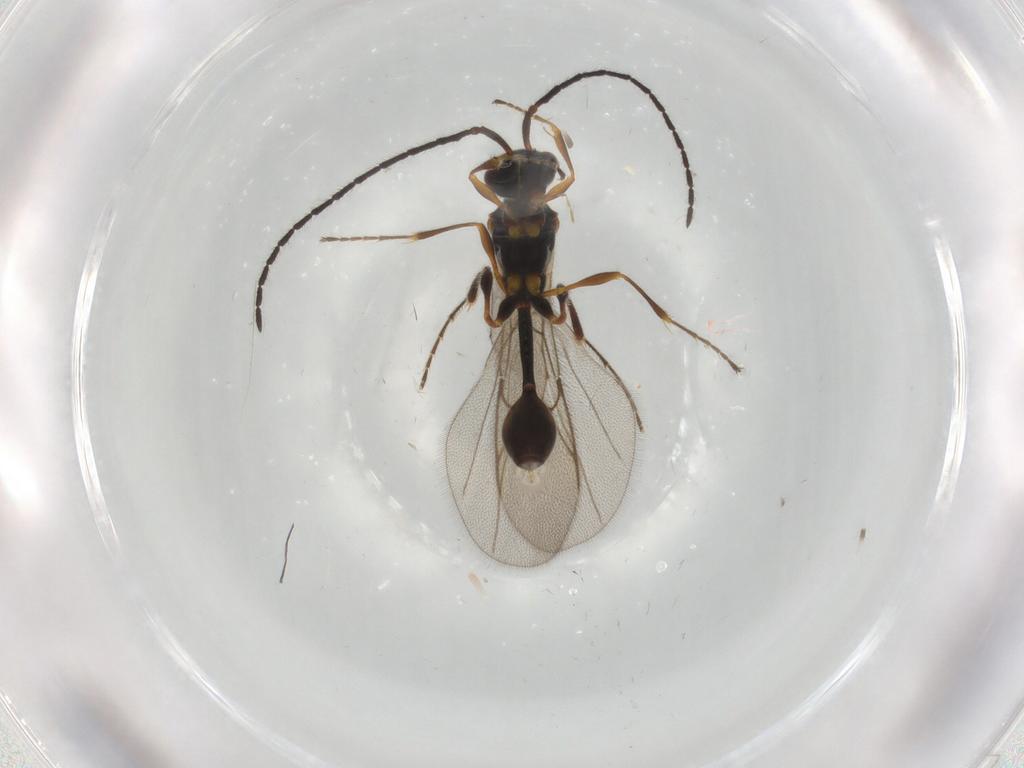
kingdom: Animalia
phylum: Arthropoda
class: Insecta
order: Hymenoptera
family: Diapriidae
